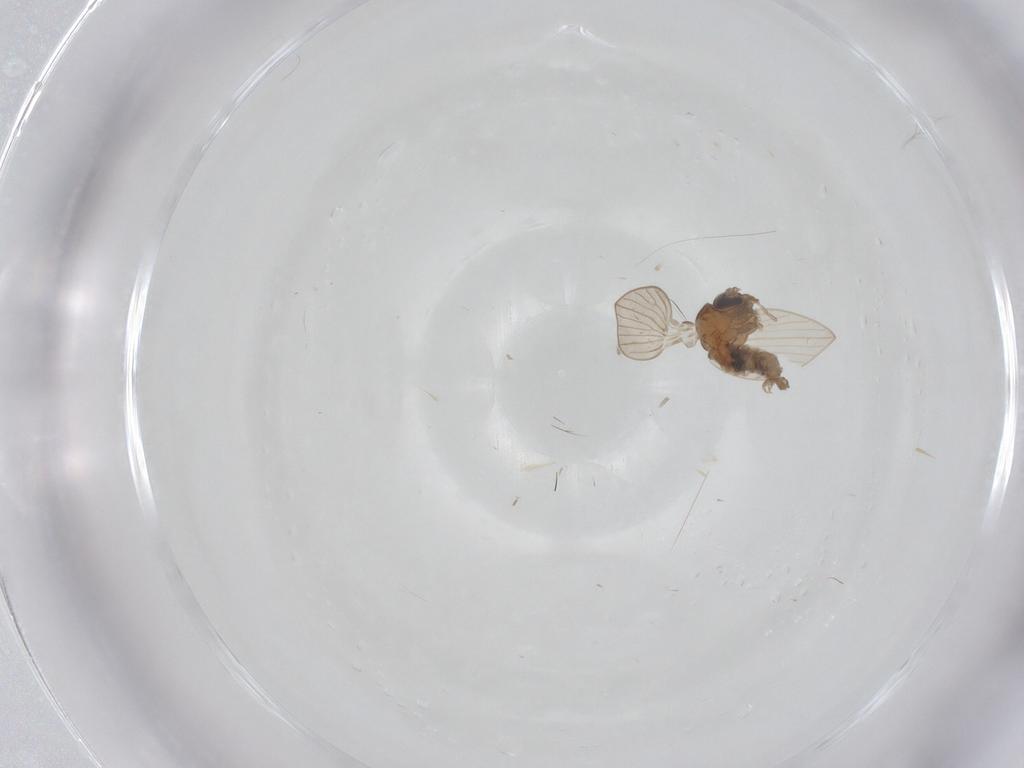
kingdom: Animalia
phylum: Arthropoda
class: Insecta
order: Diptera
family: Psychodidae
